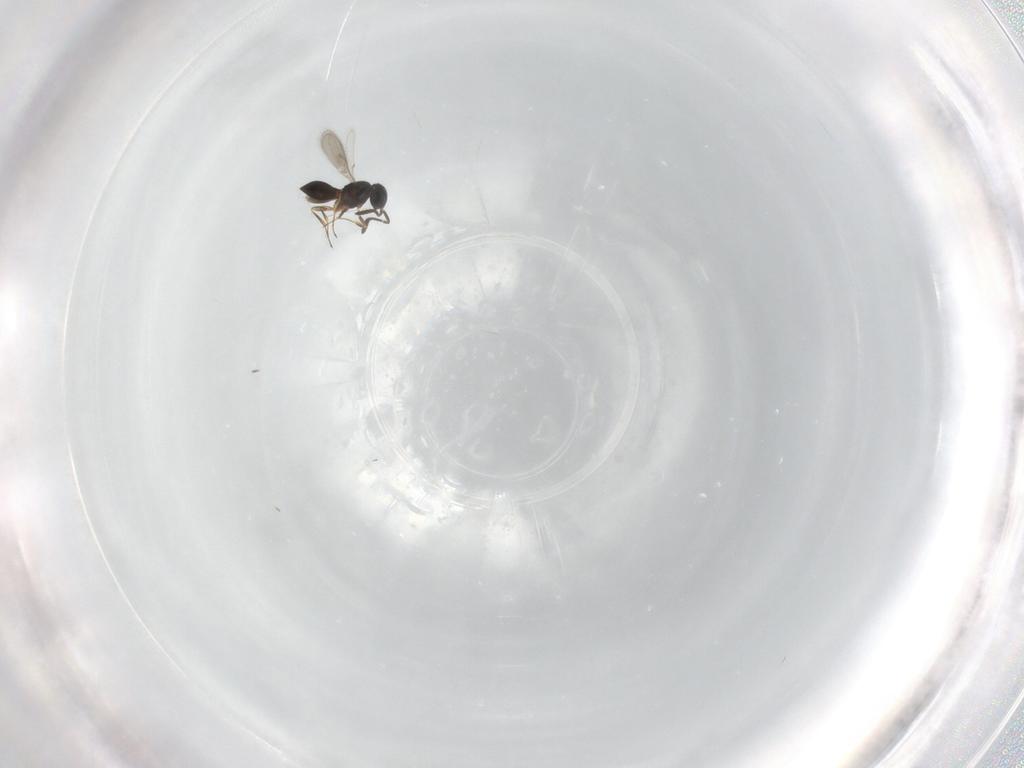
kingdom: Animalia
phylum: Arthropoda
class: Insecta
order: Hymenoptera
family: Scelionidae
